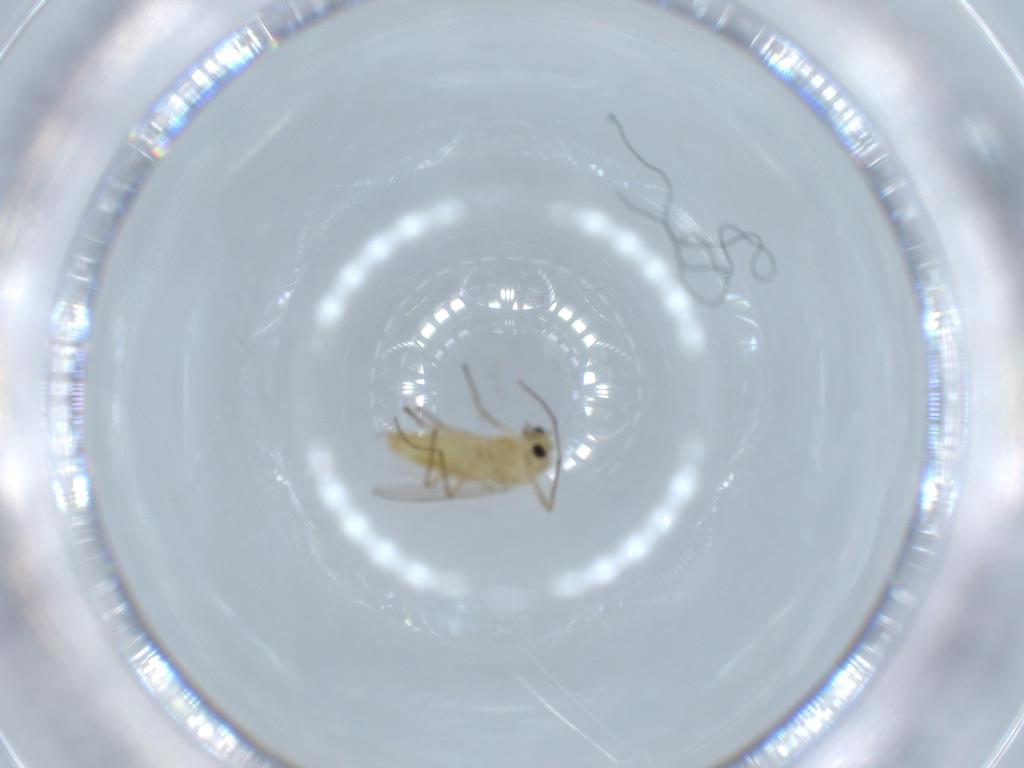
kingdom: Animalia
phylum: Arthropoda
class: Insecta
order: Diptera
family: Chironomidae
